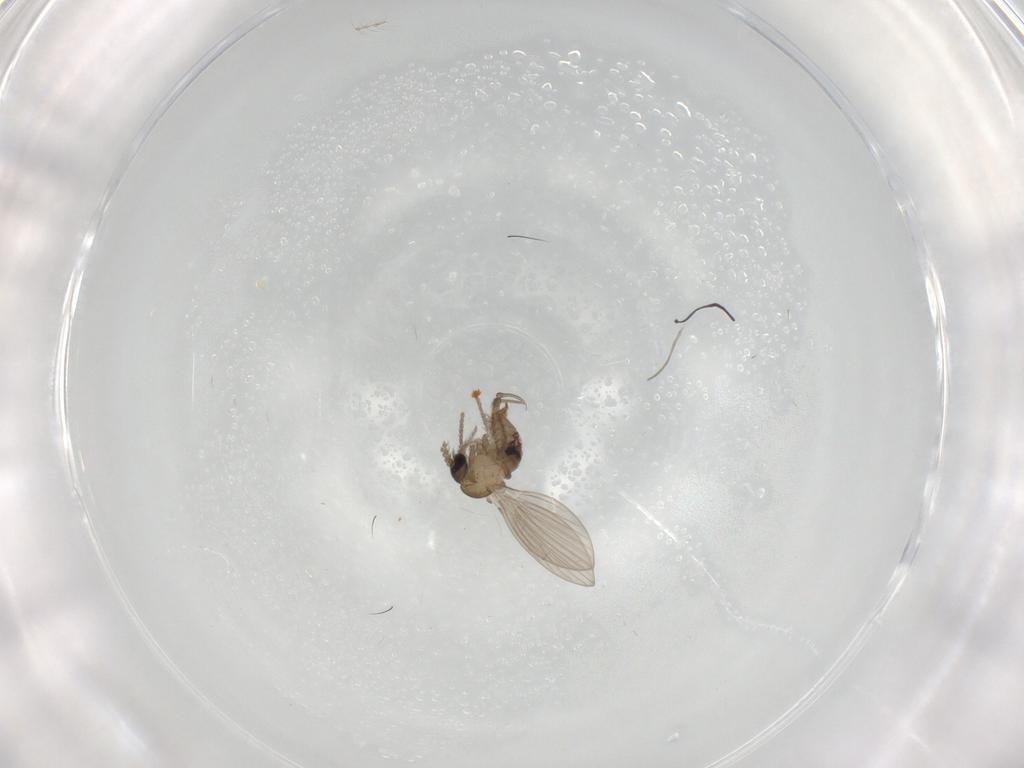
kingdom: Animalia
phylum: Arthropoda
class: Insecta
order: Diptera
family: Psychodidae
